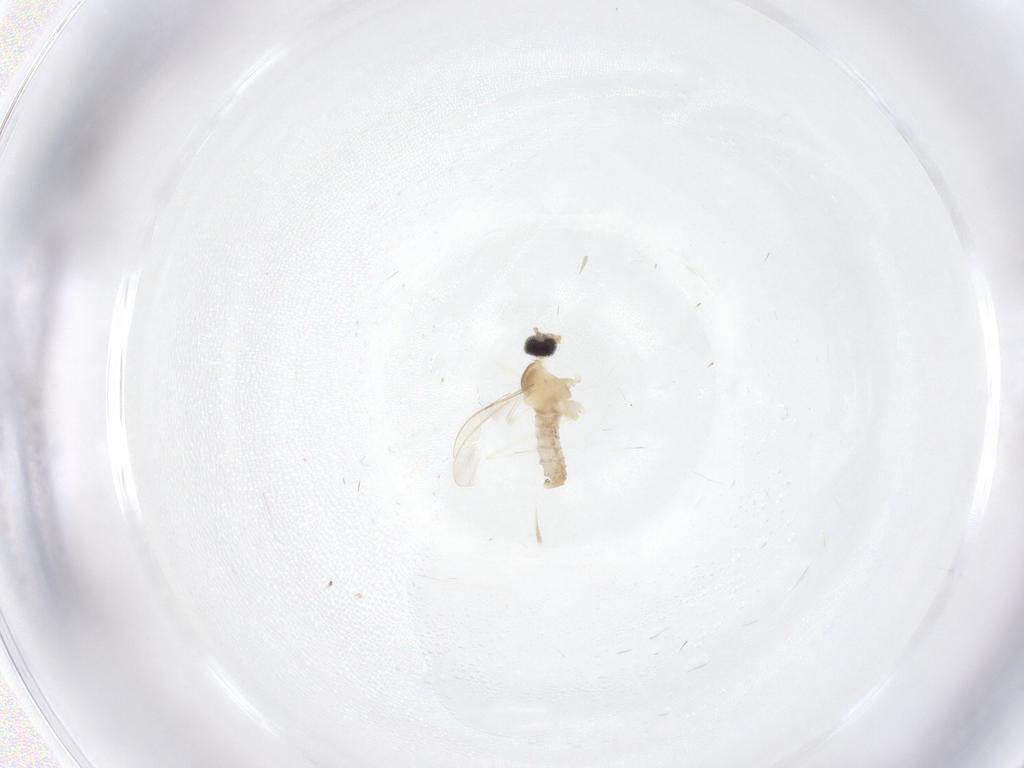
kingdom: Animalia
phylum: Arthropoda
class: Insecta
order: Diptera
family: Cecidomyiidae
